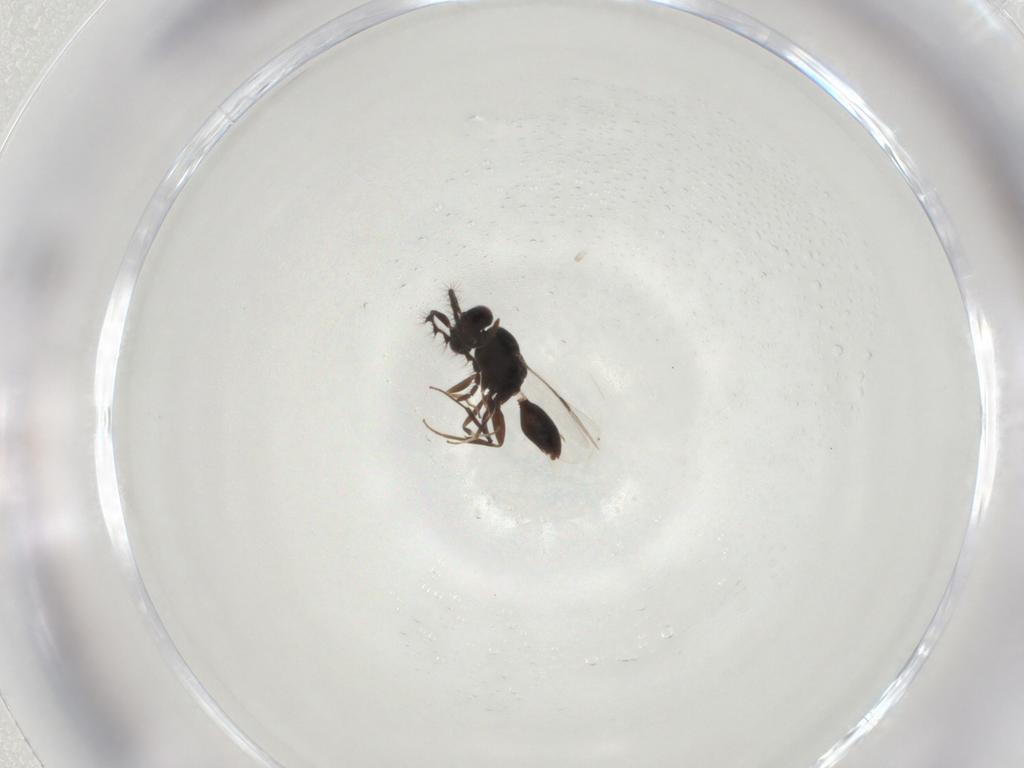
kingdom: Animalia
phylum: Arthropoda
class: Insecta
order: Hymenoptera
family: Megaspilidae
